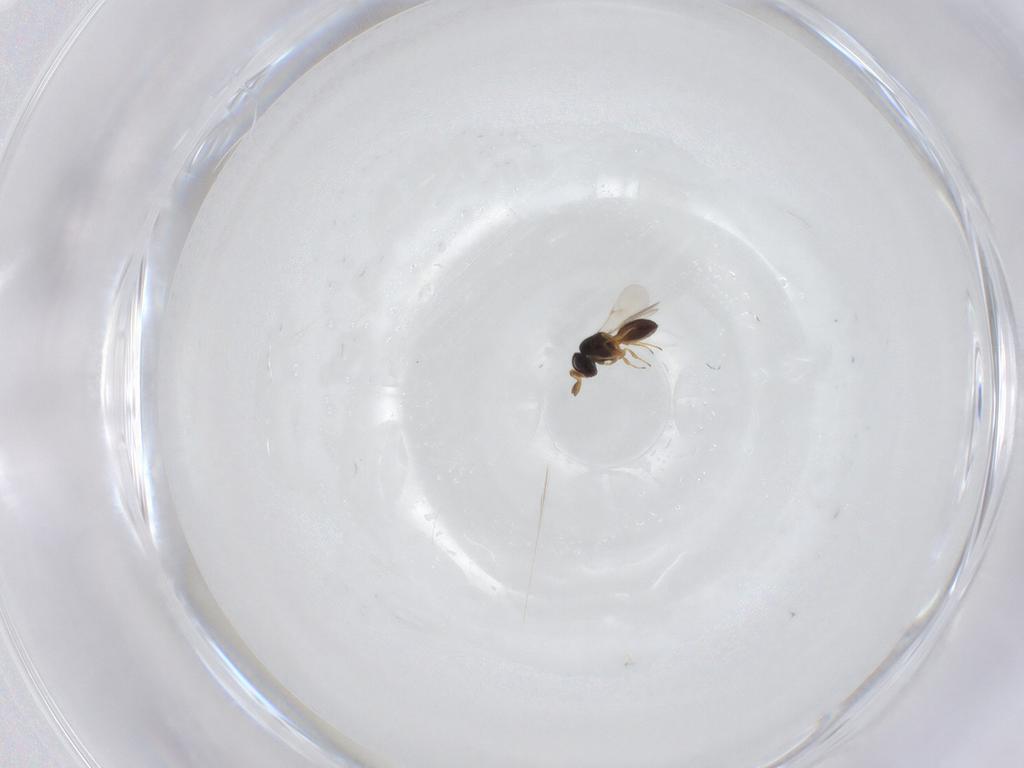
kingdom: Animalia
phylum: Arthropoda
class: Insecta
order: Hymenoptera
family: Scelionidae
